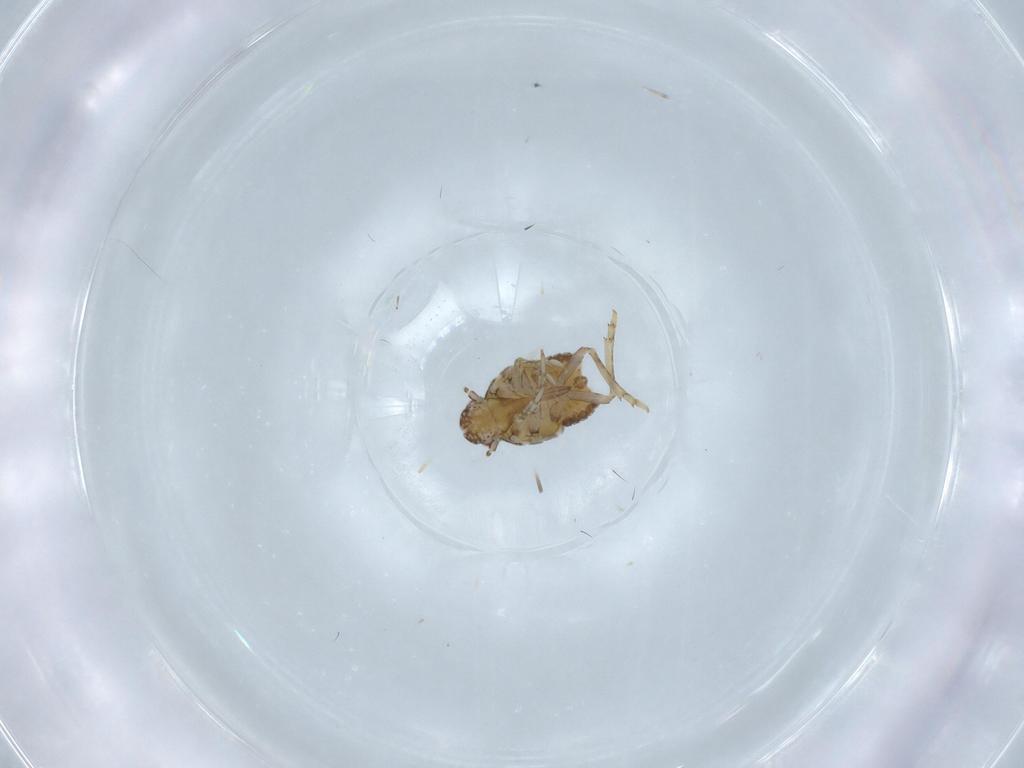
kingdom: Animalia
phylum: Arthropoda
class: Insecta
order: Hemiptera
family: Flatidae
